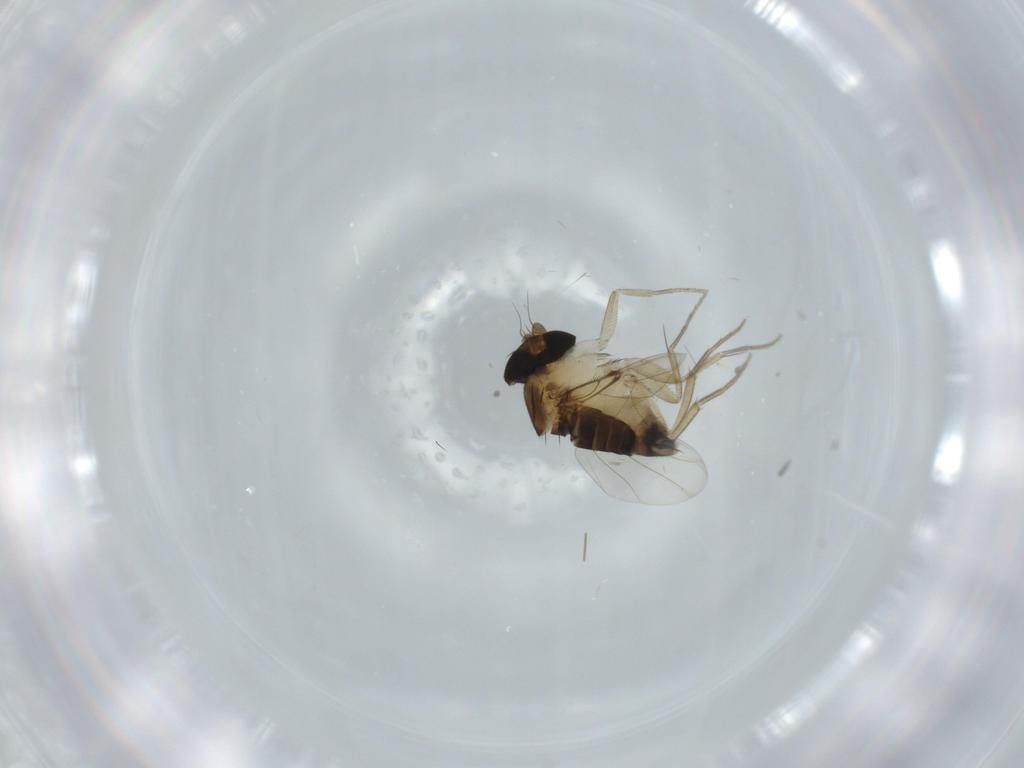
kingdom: Animalia
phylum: Arthropoda
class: Insecta
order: Diptera
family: Phoridae
